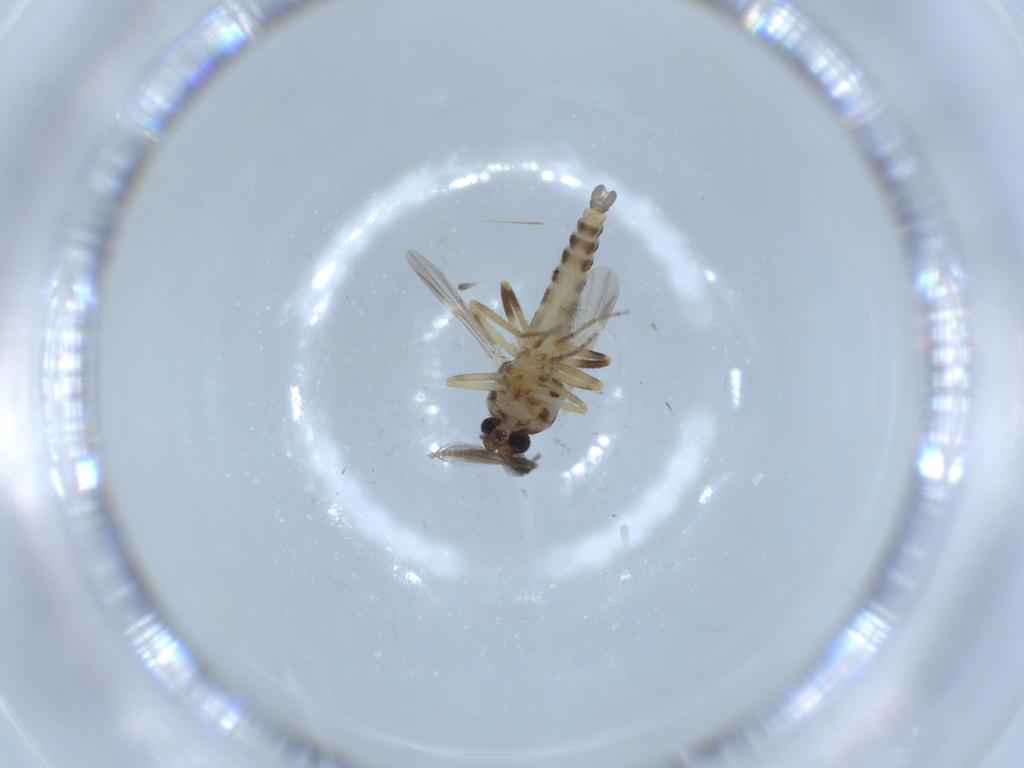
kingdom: Animalia
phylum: Arthropoda
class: Insecta
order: Diptera
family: Ceratopogonidae
